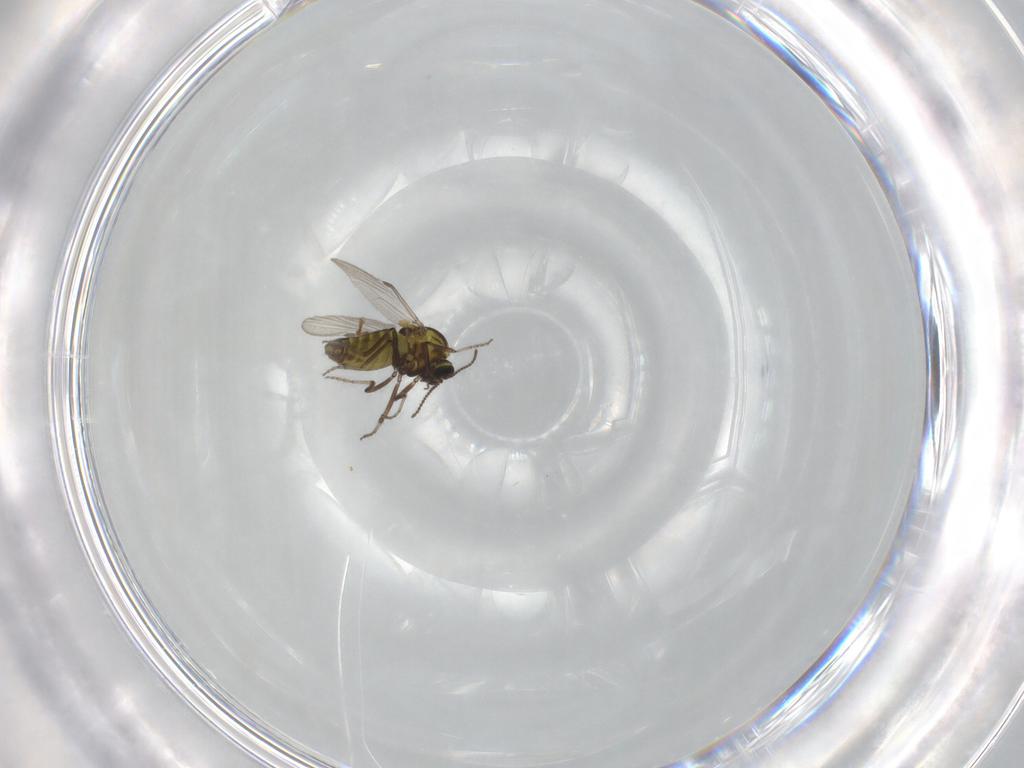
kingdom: Animalia
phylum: Arthropoda
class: Insecta
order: Diptera
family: Ceratopogonidae
